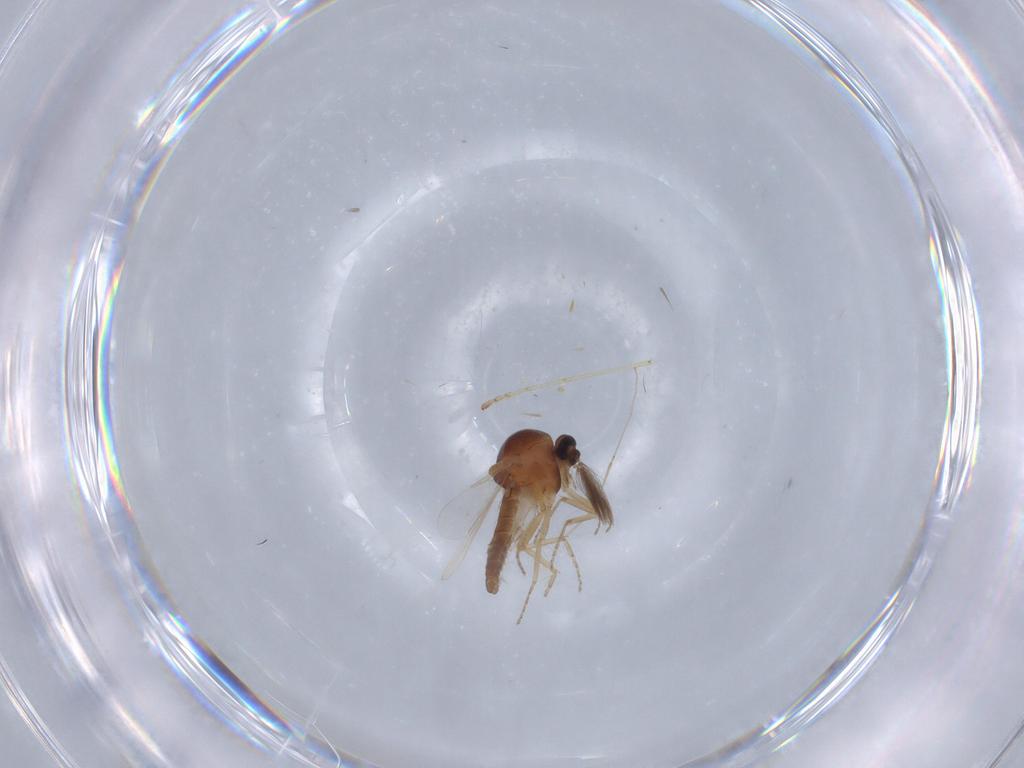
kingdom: Animalia
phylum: Arthropoda
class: Insecta
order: Diptera
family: Ceratopogonidae
